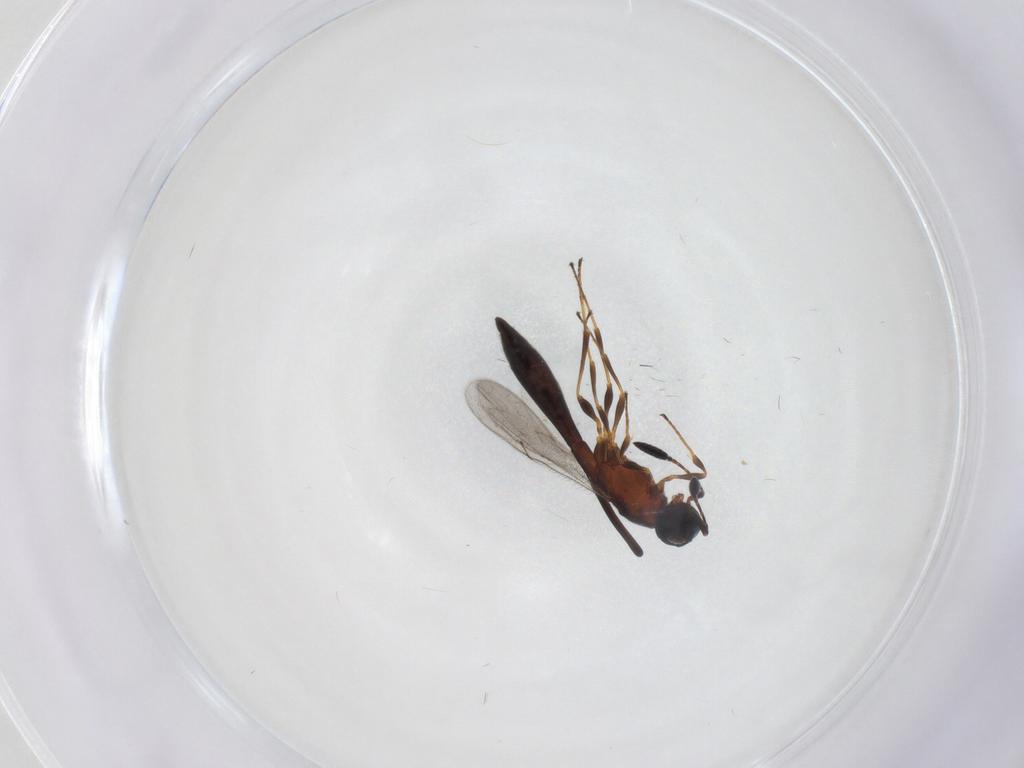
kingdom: Animalia
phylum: Arthropoda
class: Insecta
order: Hymenoptera
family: Scelionidae
